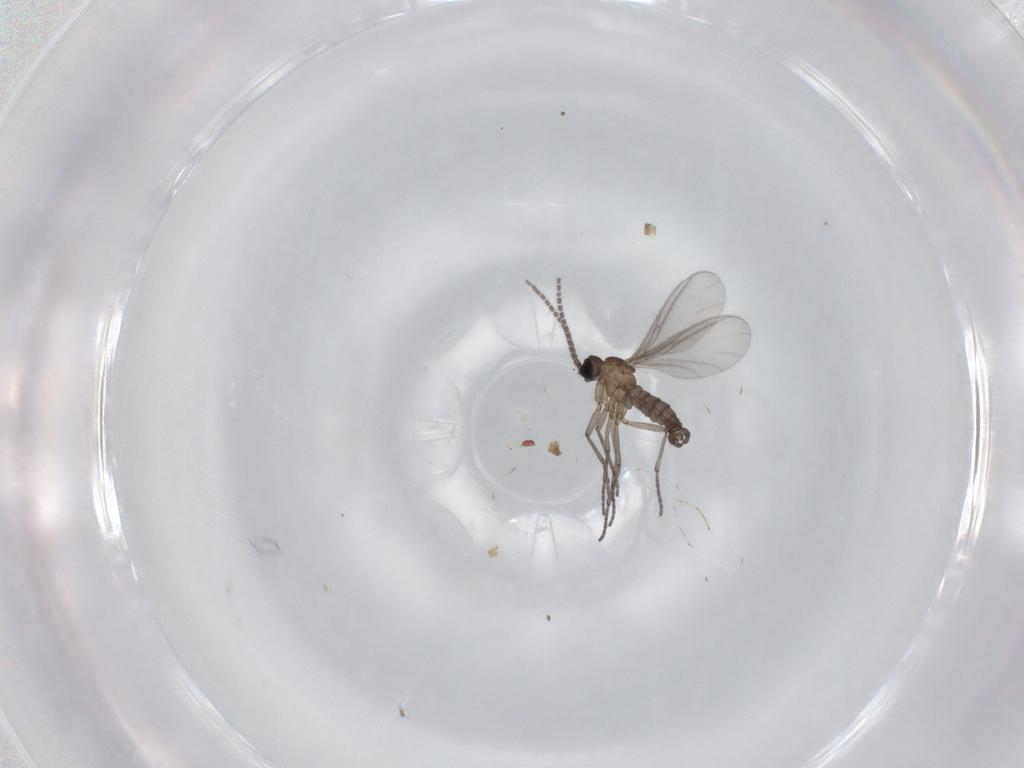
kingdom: Animalia
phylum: Arthropoda
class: Insecta
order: Diptera
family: Sciaridae
